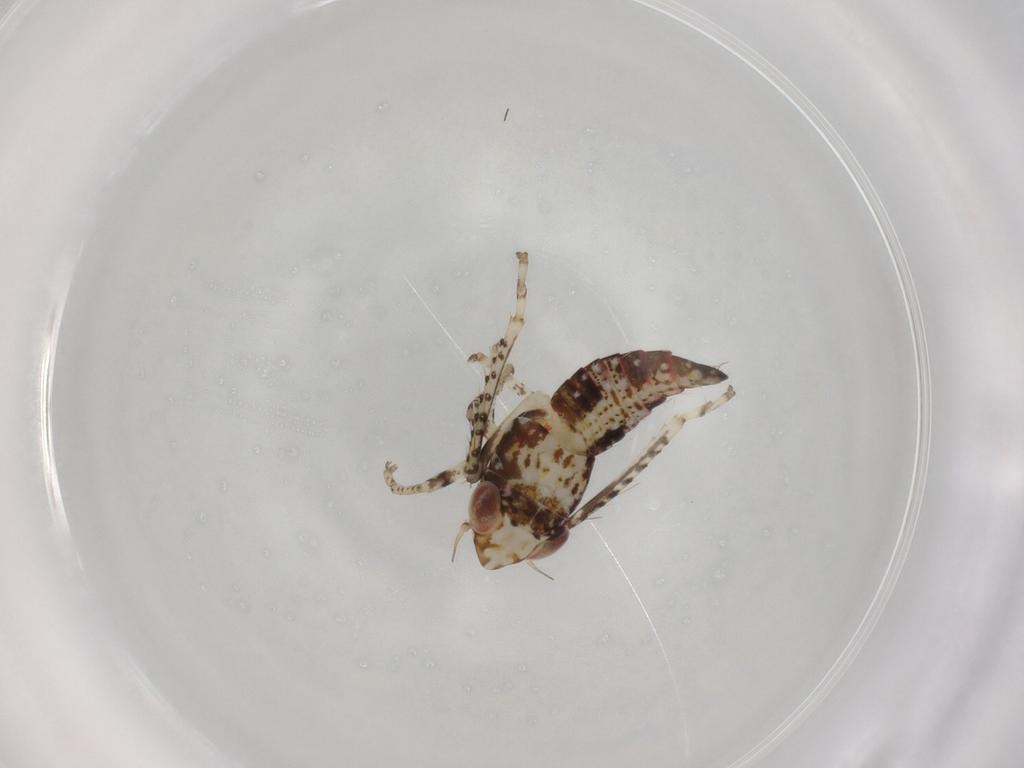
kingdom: Animalia
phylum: Arthropoda
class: Insecta
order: Hemiptera
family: Cicadellidae
